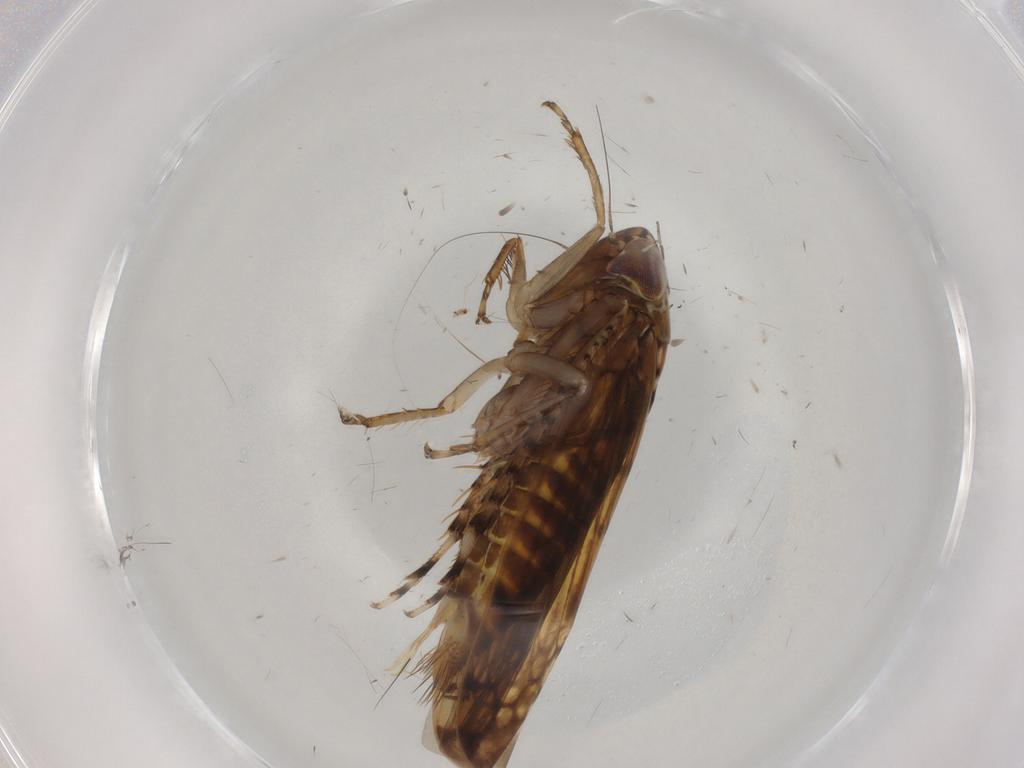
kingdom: Animalia
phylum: Arthropoda
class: Insecta
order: Hemiptera
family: Cicadellidae
